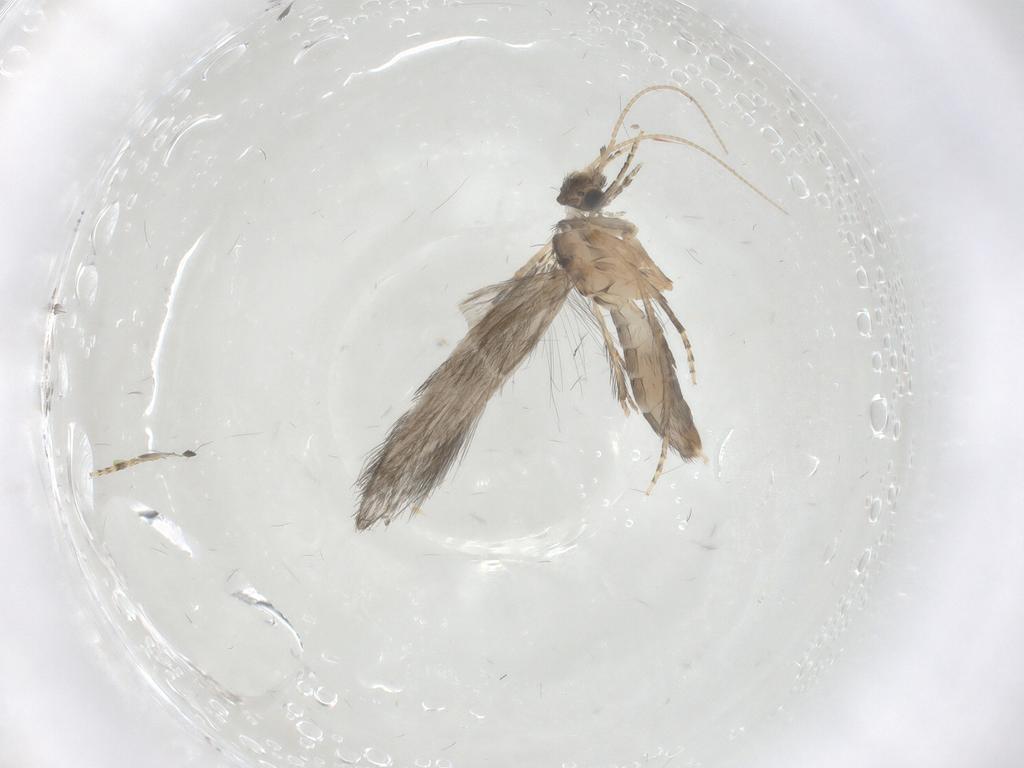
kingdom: Animalia
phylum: Arthropoda
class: Insecta
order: Trichoptera
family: Hydroptilidae
